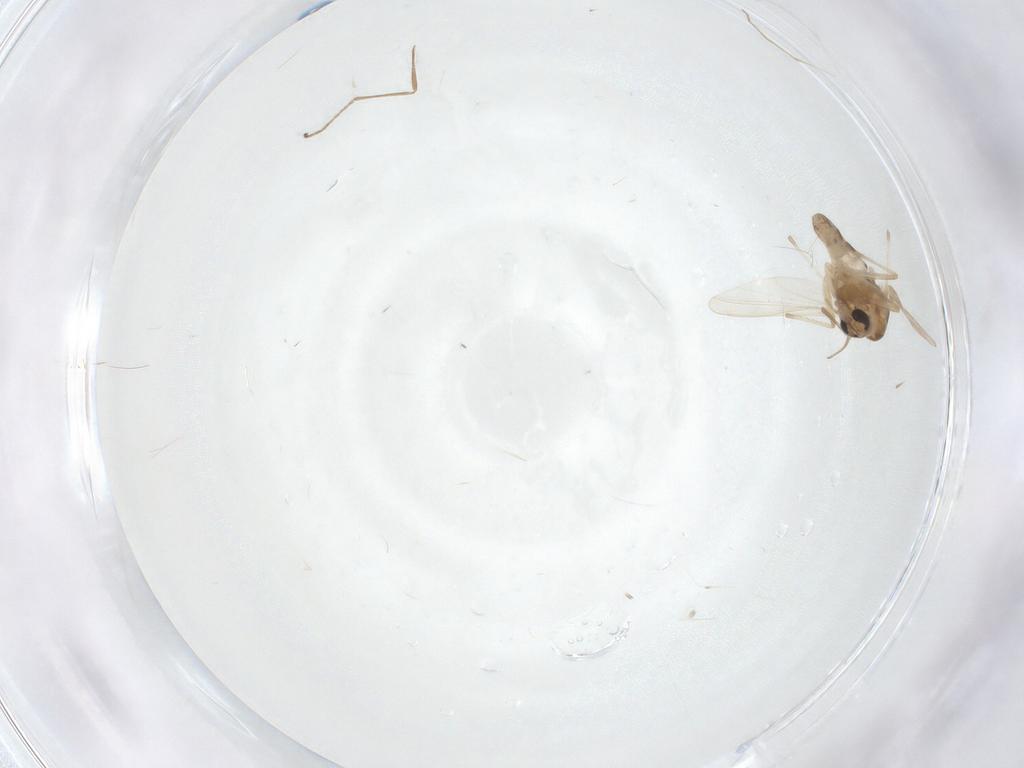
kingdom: Animalia
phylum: Arthropoda
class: Insecta
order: Diptera
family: Chironomidae
